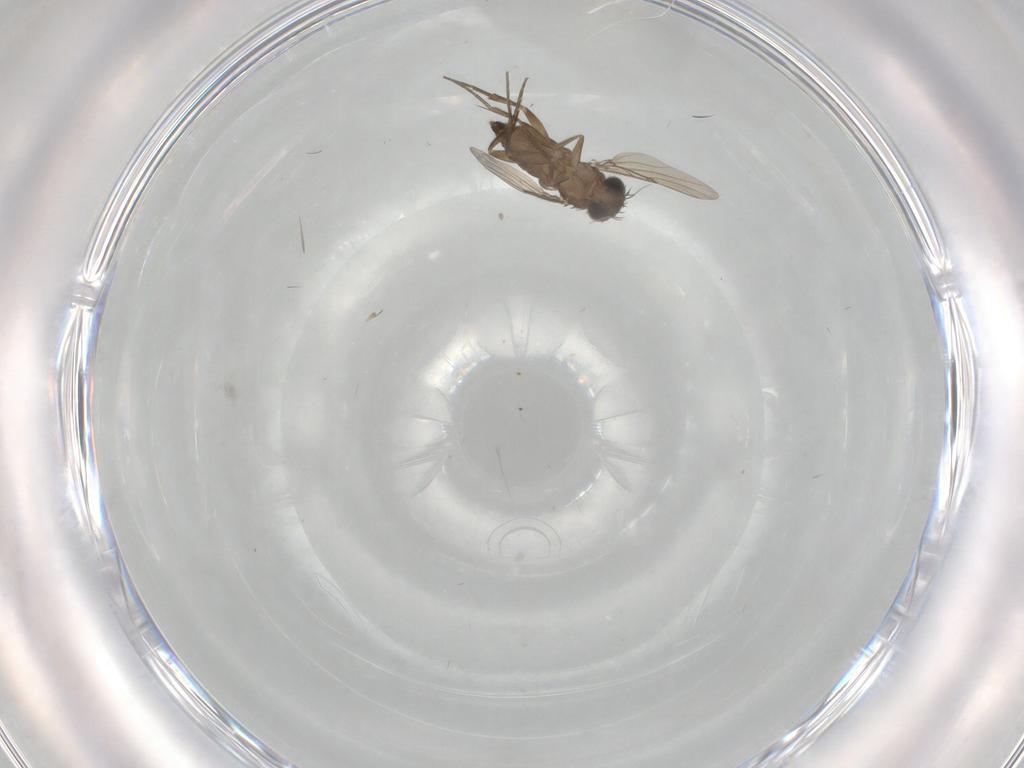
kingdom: Animalia
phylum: Arthropoda
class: Insecta
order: Diptera
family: Phoridae
